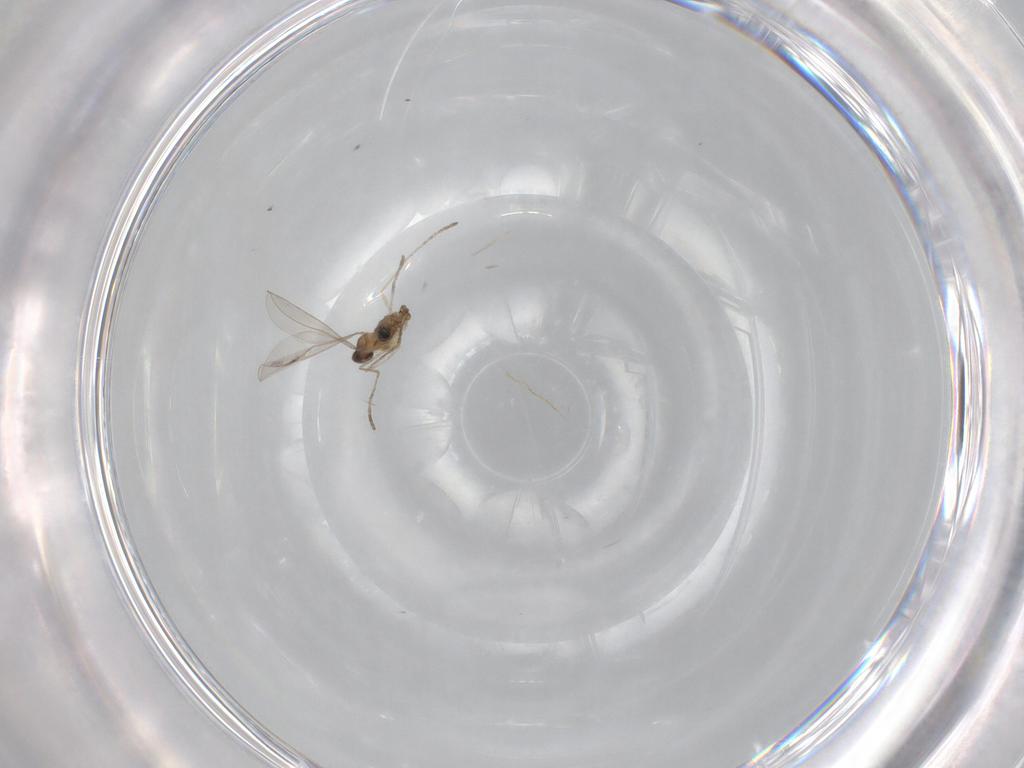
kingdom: Animalia
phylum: Arthropoda
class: Insecta
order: Diptera
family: Cecidomyiidae
